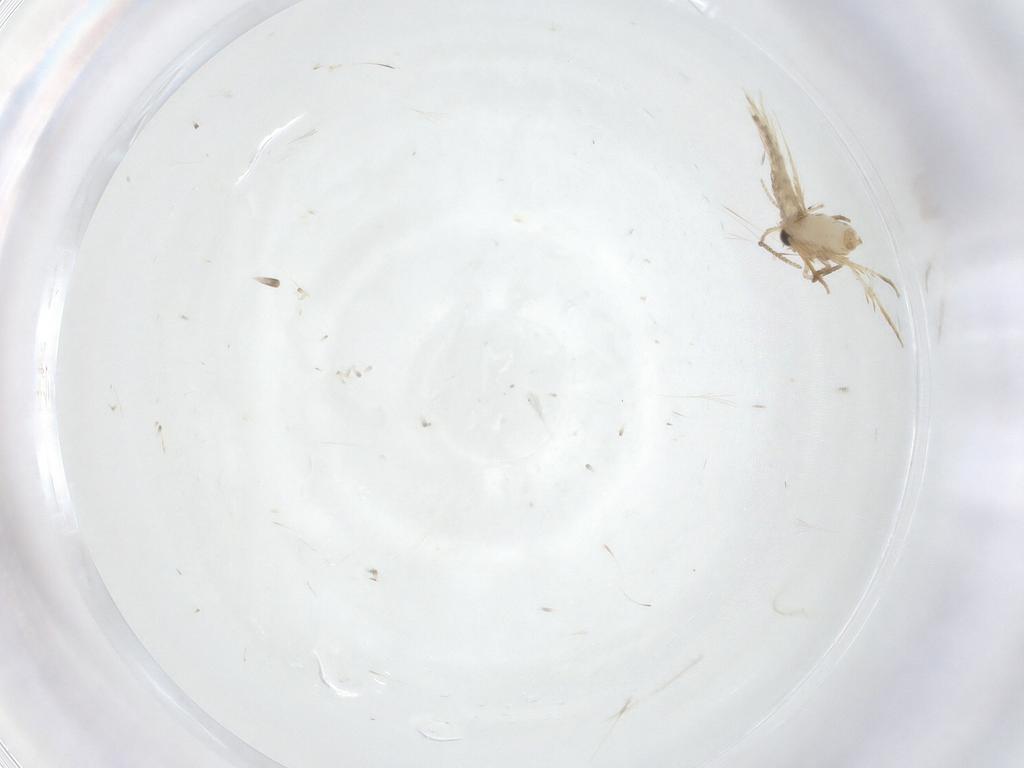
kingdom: Animalia
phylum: Arthropoda
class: Insecta
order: Lepidoptera
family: Nepticulidae
